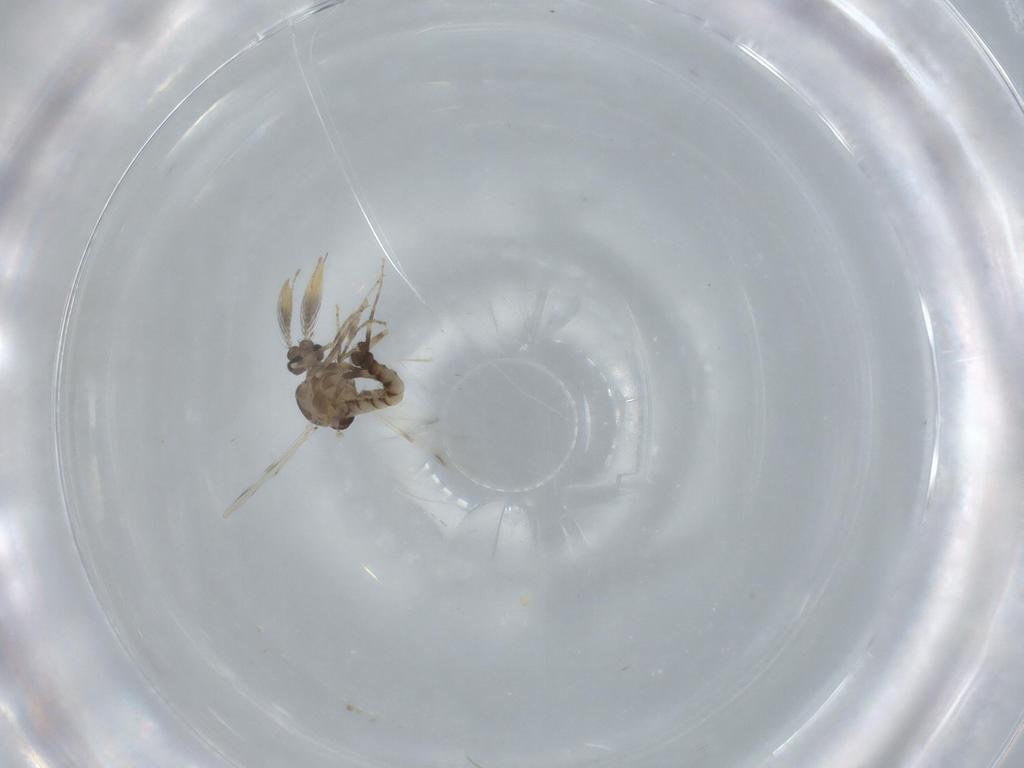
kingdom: Animalia
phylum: Arthropoda
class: Insecta
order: Diptera
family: Ceratopogonidae
